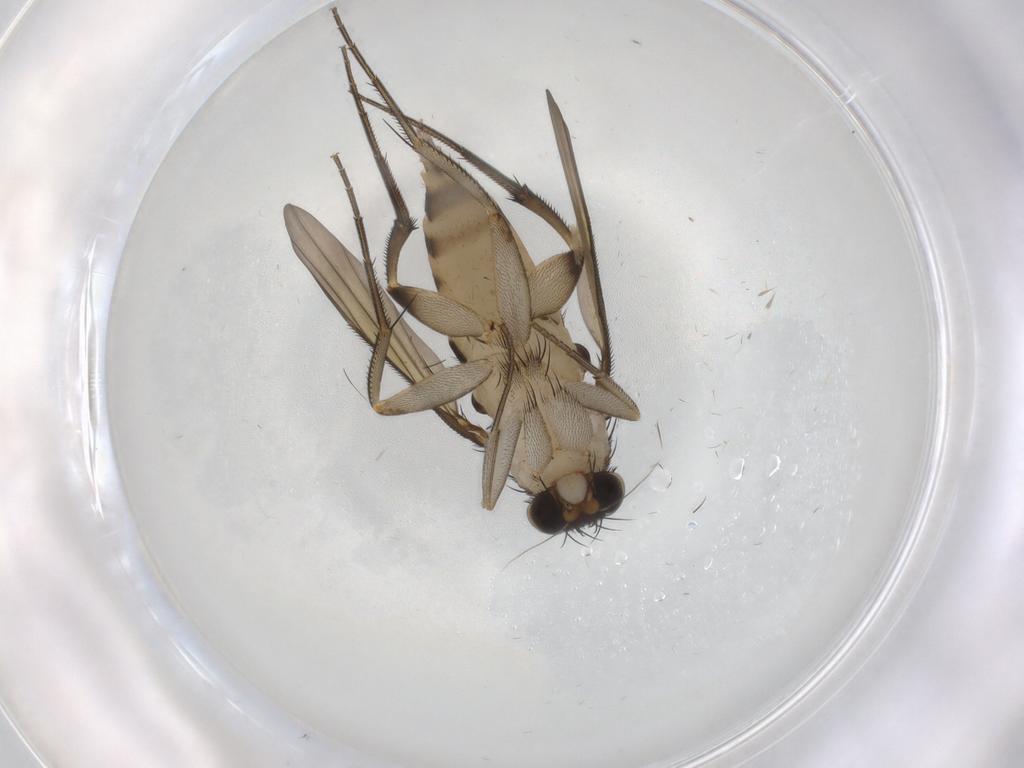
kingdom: Animalia
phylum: Arthropoda
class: Insecta
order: Diptera
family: Phoridae
